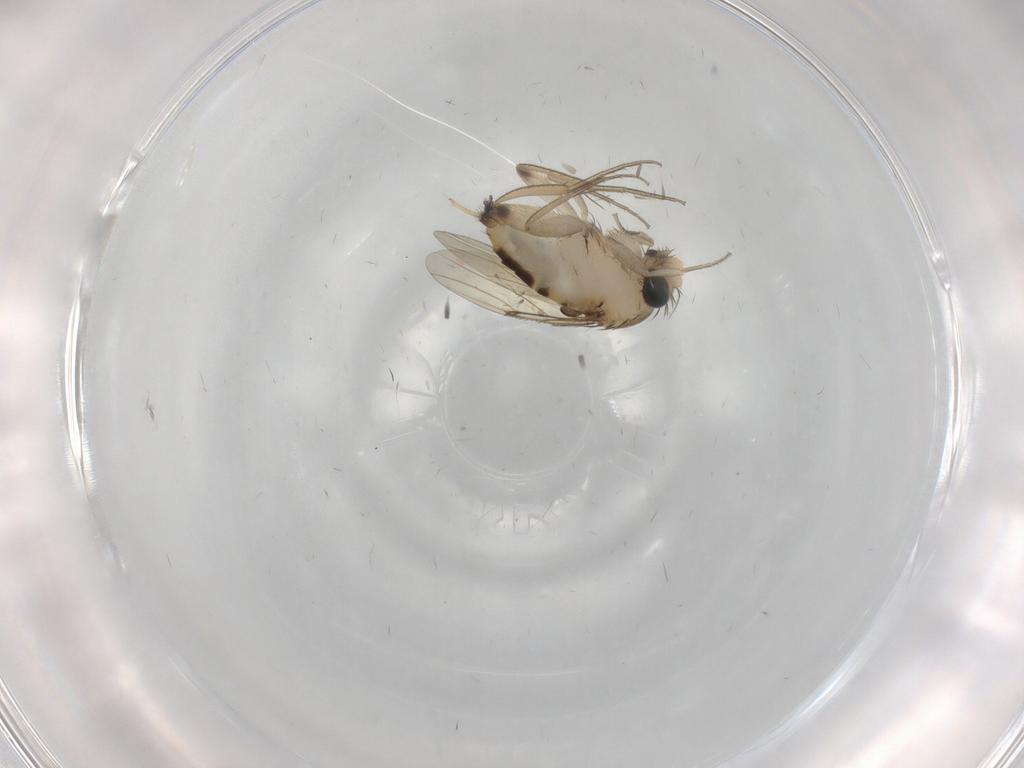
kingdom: Animalia
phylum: Arthropoda
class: Insecta
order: Diptera
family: Phoridae
